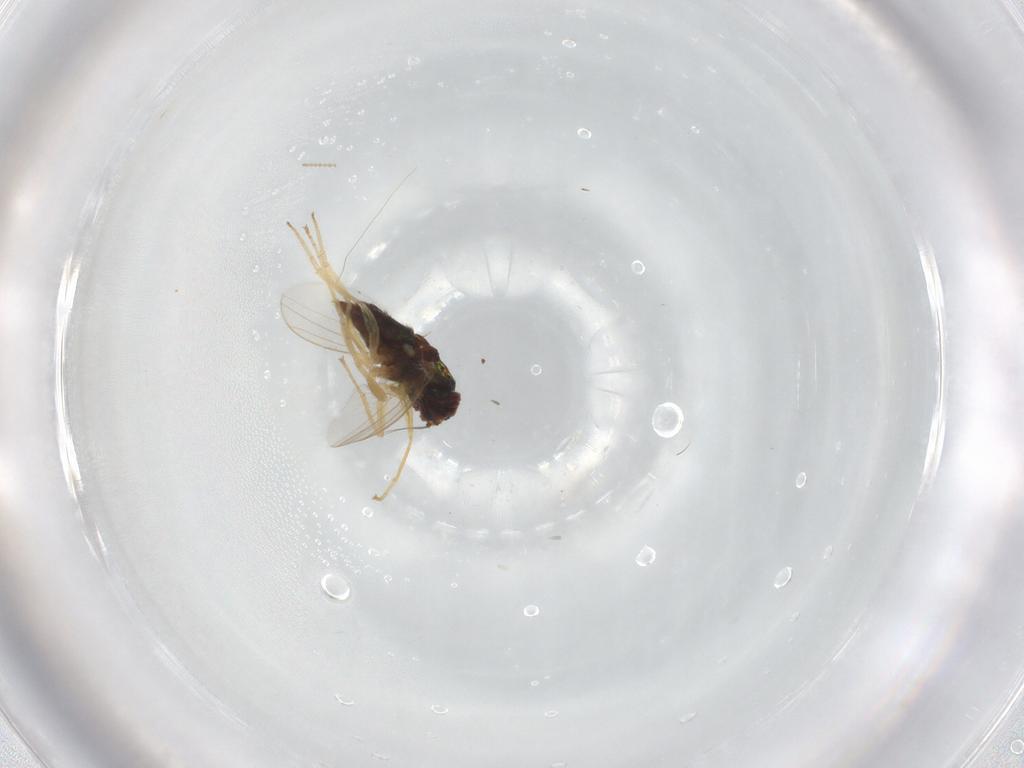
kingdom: Animalia
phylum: Arthropoda
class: Insecta
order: Diptera
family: Dolichopodidae
